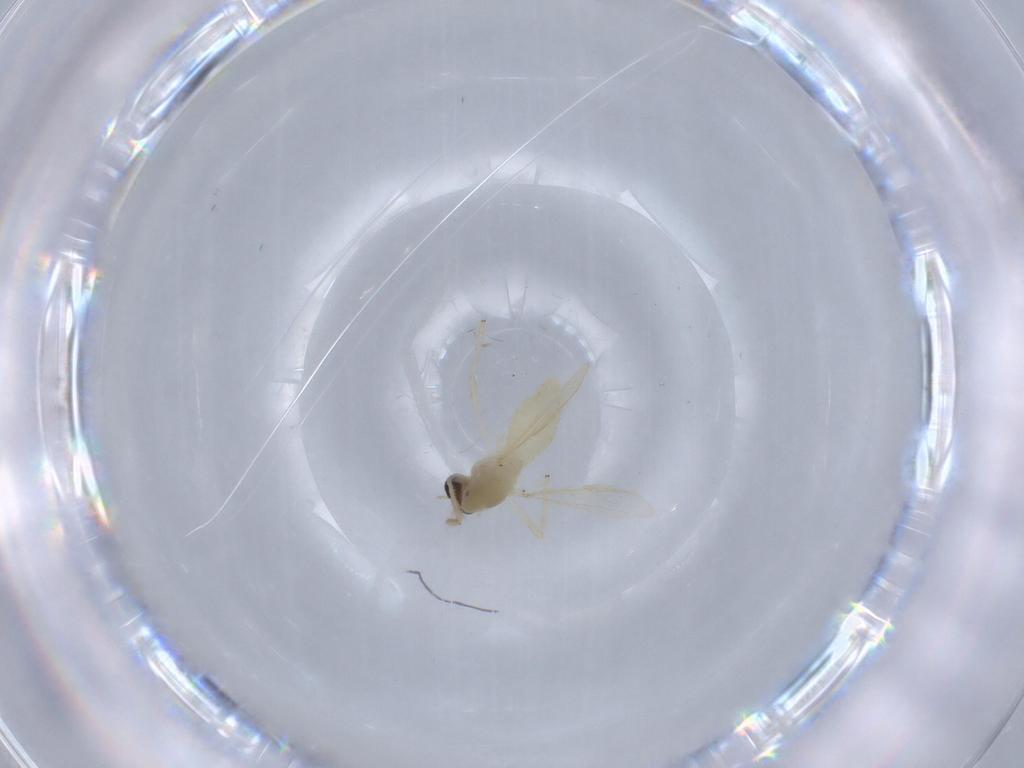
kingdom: Animalia
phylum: Arthropoda
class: Insecta
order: Diptera
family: Chironomidae
